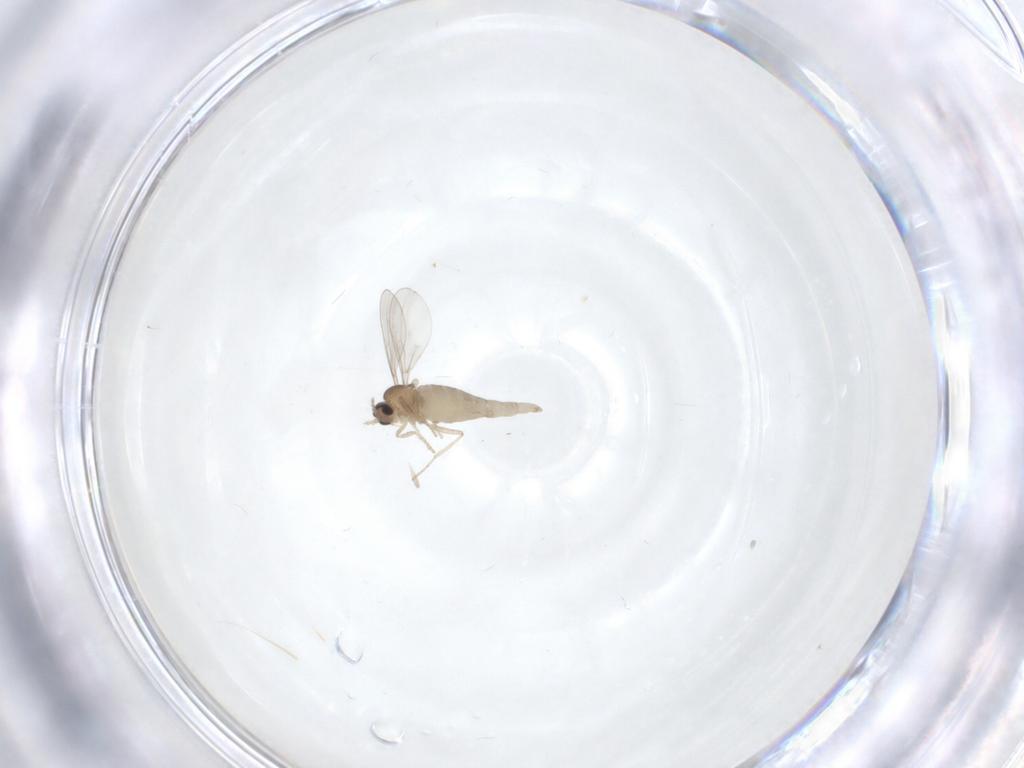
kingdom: Animalia
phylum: Arthropoda
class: Insecta
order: Diptera
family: Cecidomyiidae
